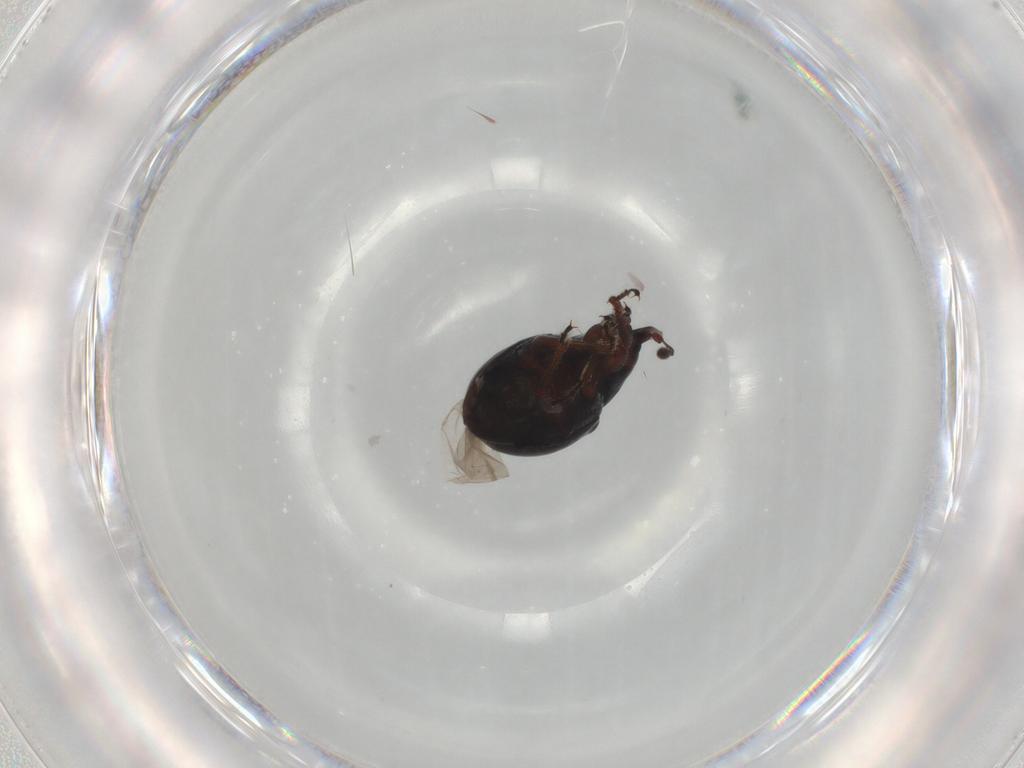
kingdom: Animalia
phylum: Arthropoda
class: Insecta
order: Coleoptera
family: Curculionidae
